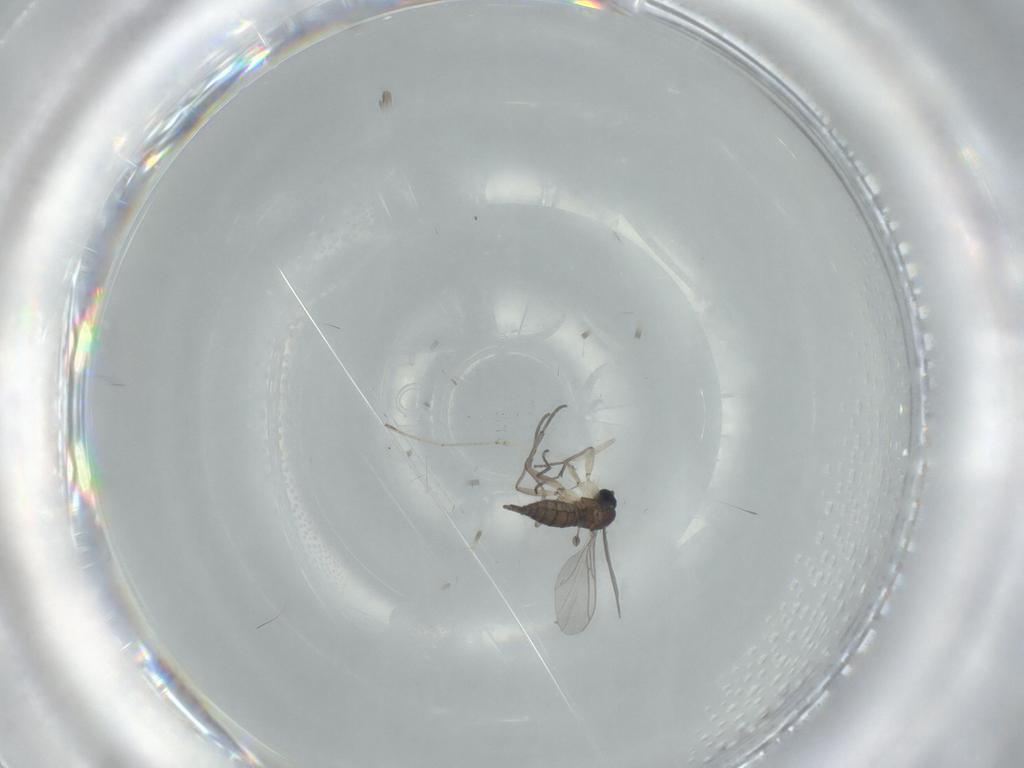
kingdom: Animalia
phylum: Arthropoda
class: Insecta
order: Diptera
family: Sciaridae
